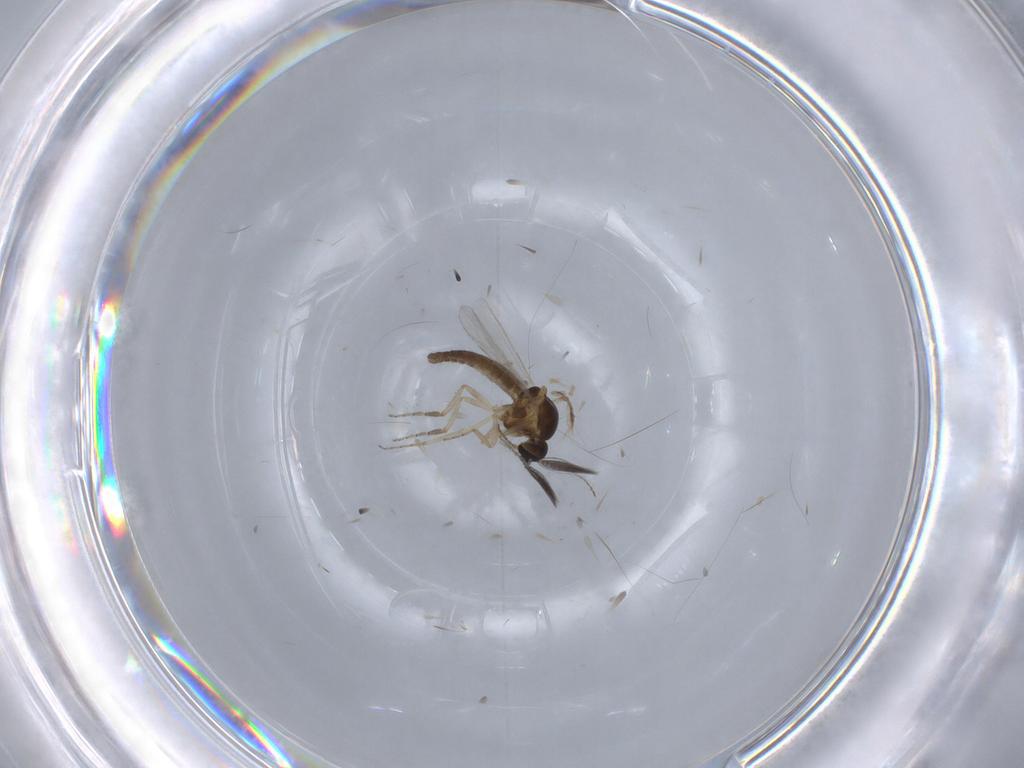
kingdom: Animalia
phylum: Arthropoda
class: Insecta
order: Diptera
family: Ceratopogonidae
